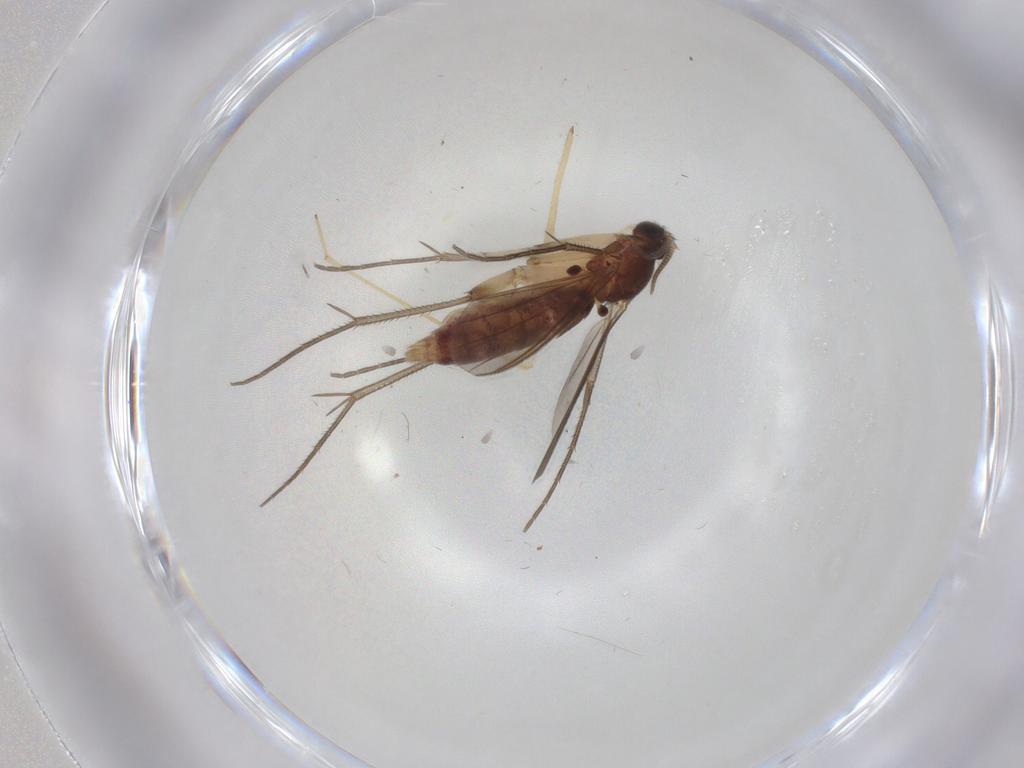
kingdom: Animalia
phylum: Arthropoda
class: Insecta
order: Diptera
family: Mycetophilidae
